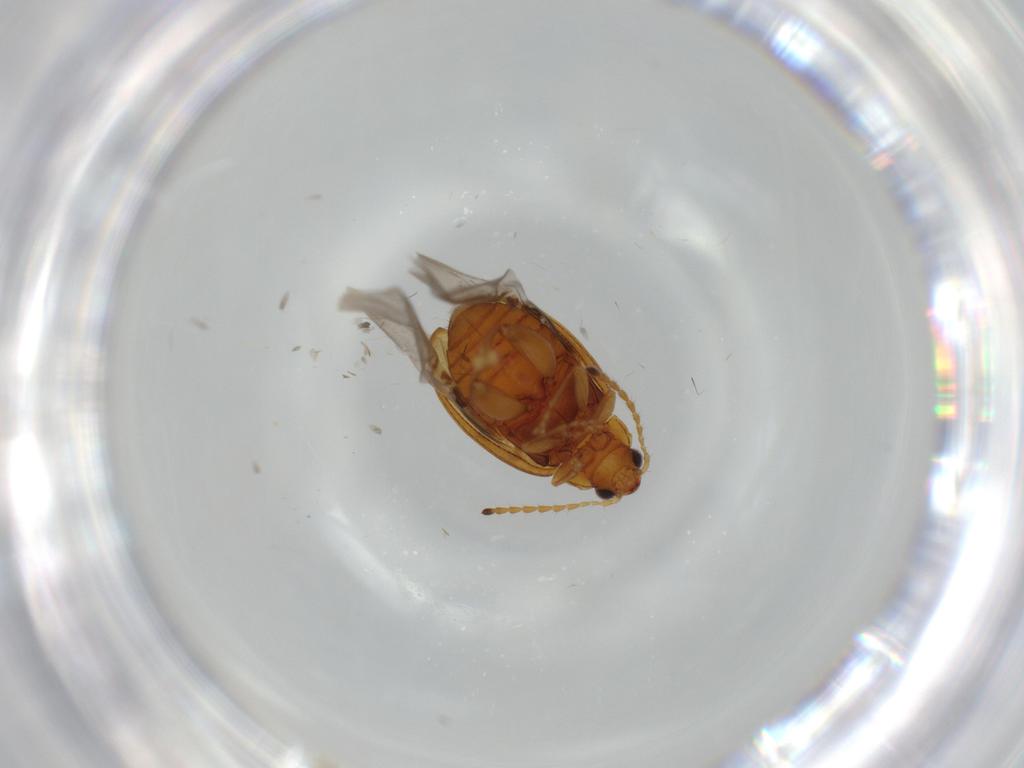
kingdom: Animalia
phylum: Arthropoda
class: Insecta
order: Coleoptera
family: Chrysomelidae
